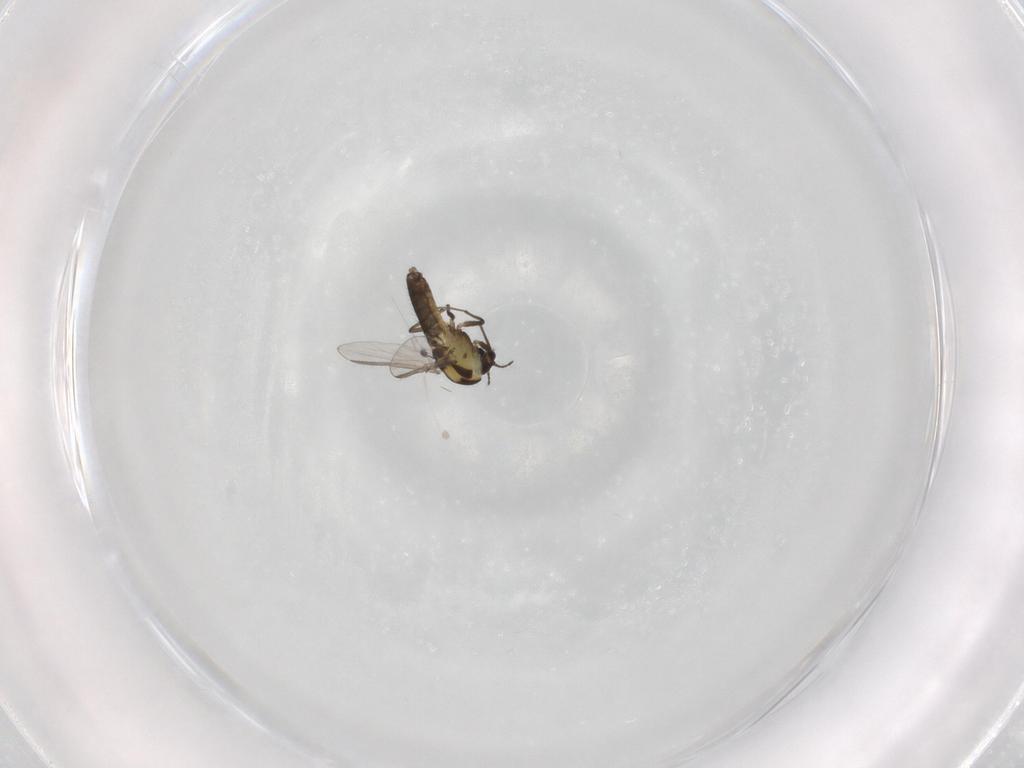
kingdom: Animalia
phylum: Arthropoda
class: Insecta
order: Diptera
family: Chironomidae
